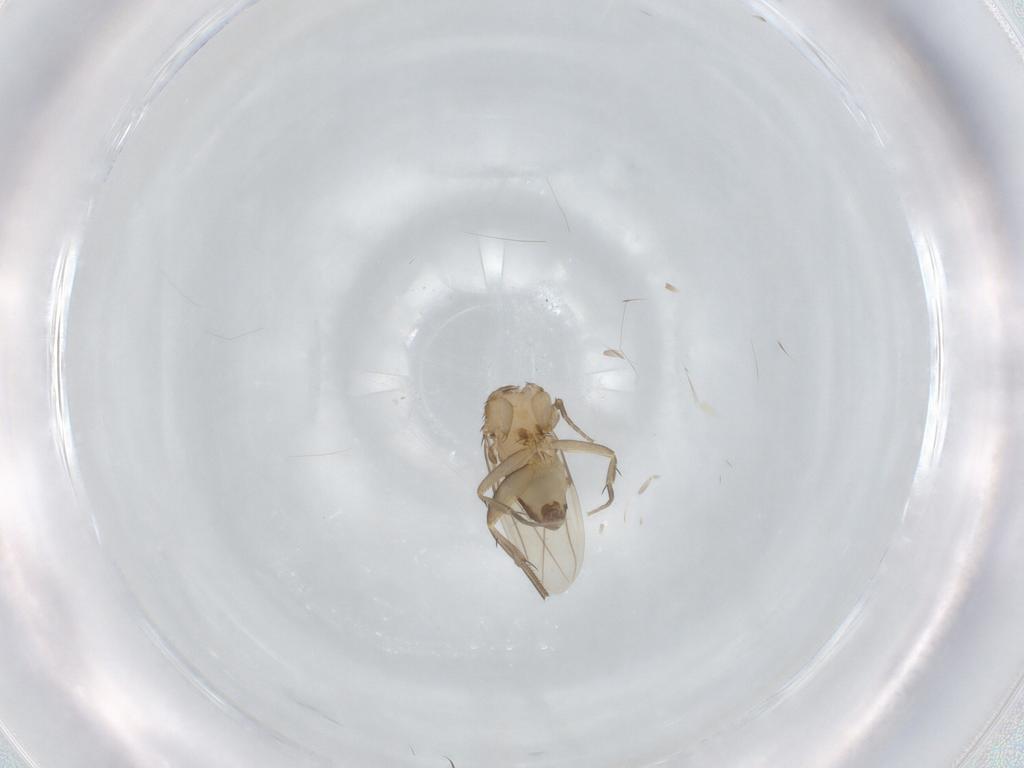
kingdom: Animalia
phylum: Arthropoda
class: Insecta
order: Diptera
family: Phoridae
